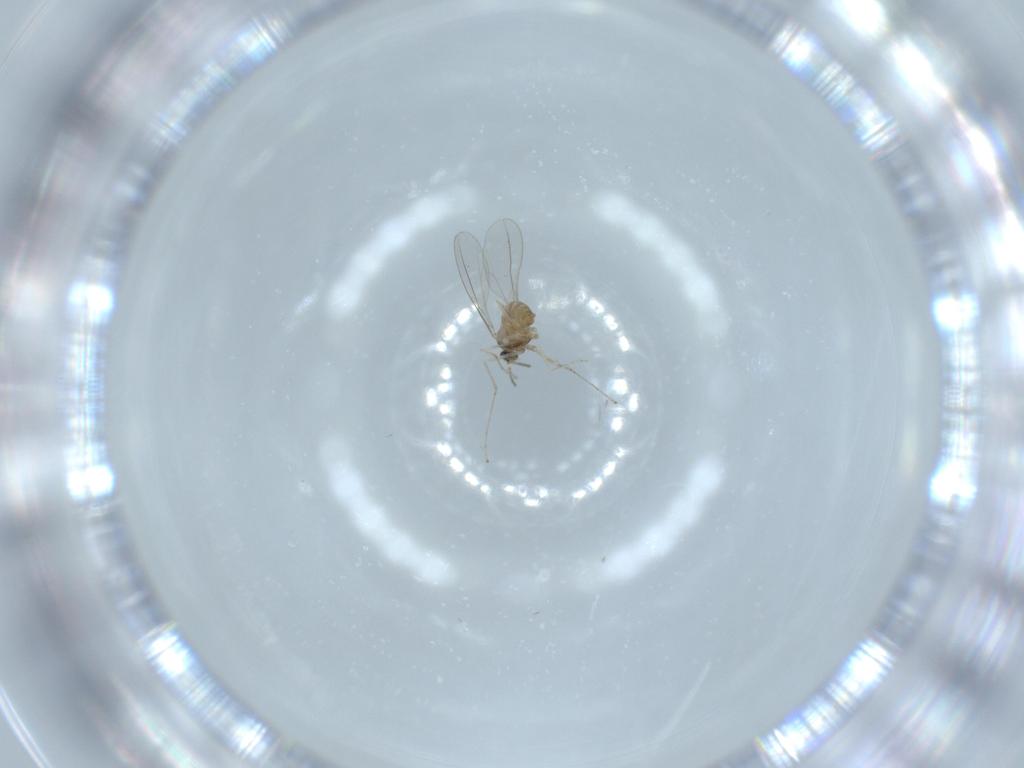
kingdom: Animalia
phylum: Arthropoda
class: Insecta
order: Diptera
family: Cecidomyiidae
